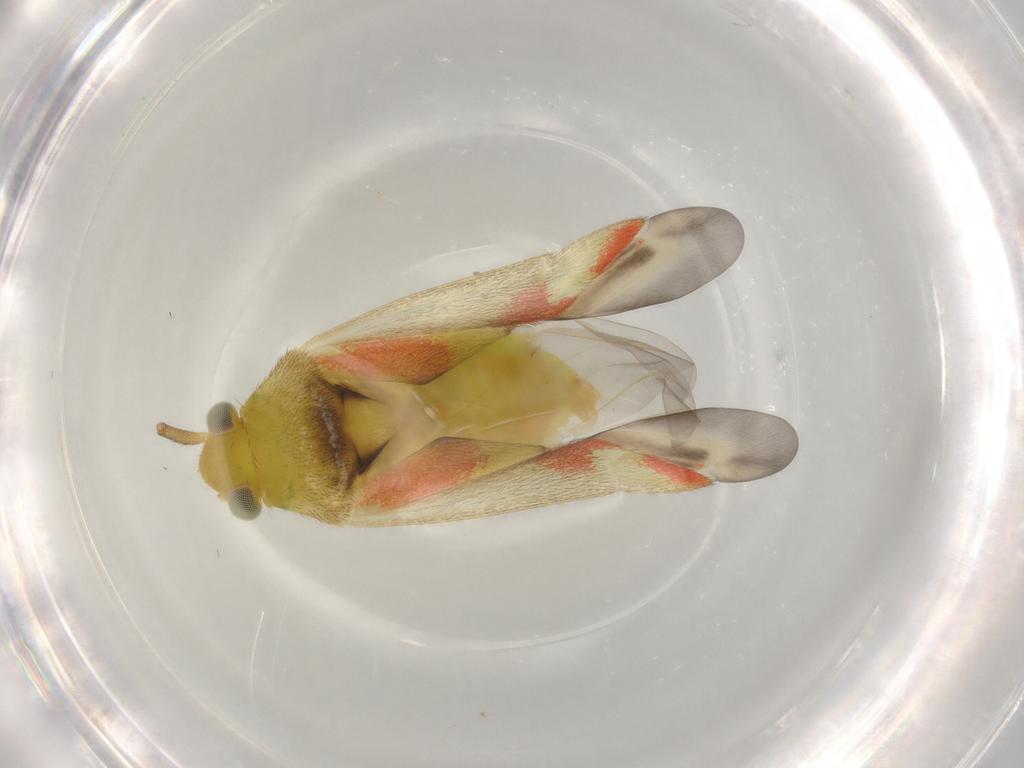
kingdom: Animalia
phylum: Arthropoda
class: Insecta
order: Hemiptera
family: Miridae
